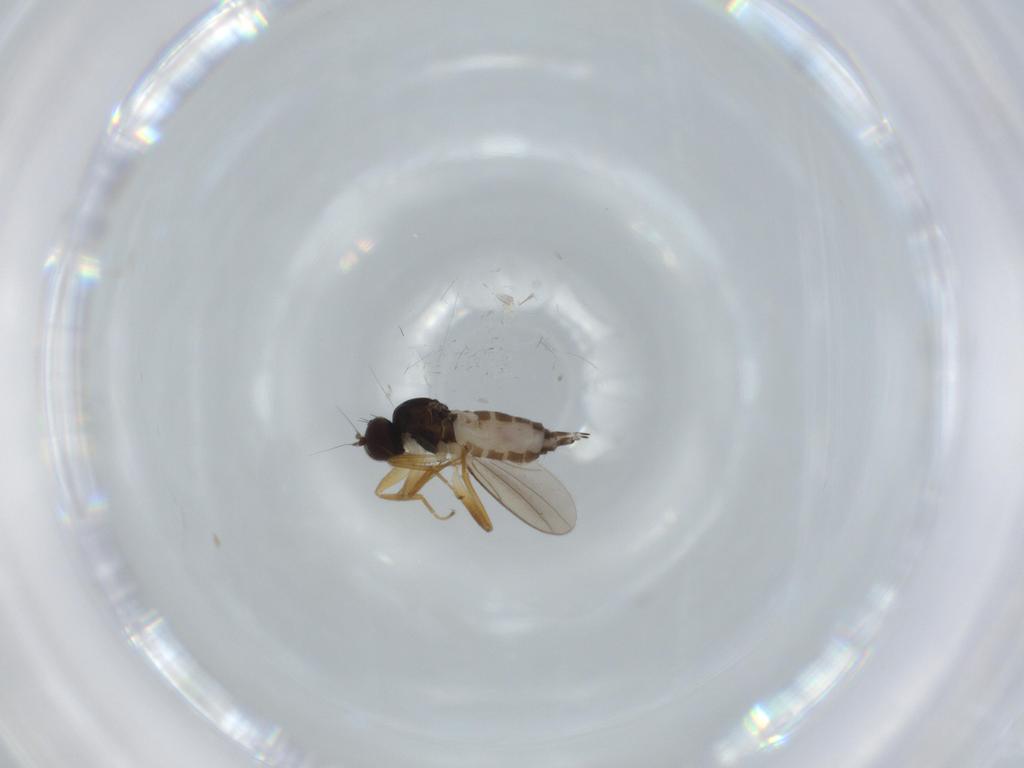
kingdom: Animalia
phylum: Arthropoda
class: Insecta
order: Diptera
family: Hybotidae
